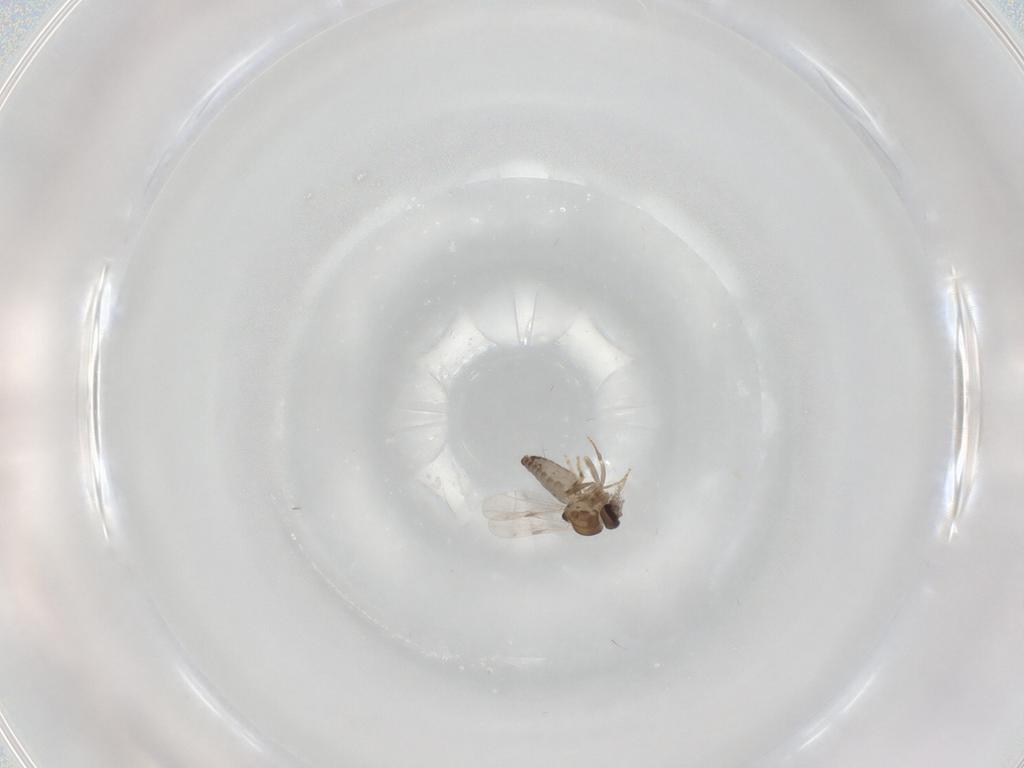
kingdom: Animalia
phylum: Arthropoda
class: Insecta
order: Diptera
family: Ceratopogonidae
